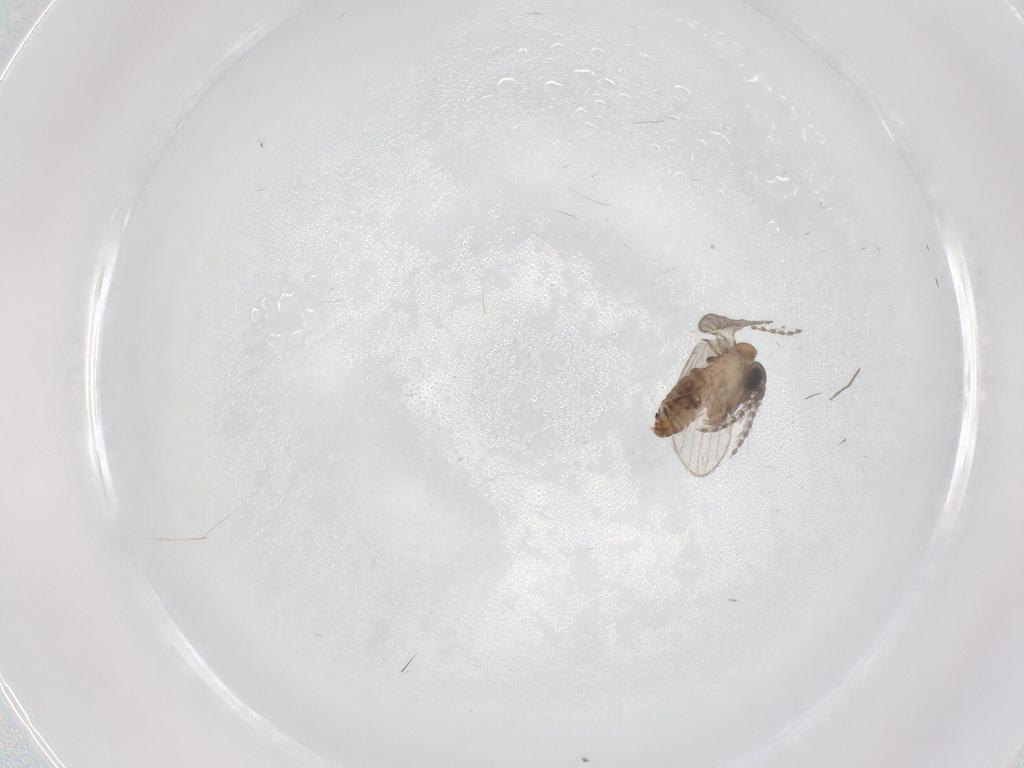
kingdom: Animalia
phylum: Arthropoda
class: Insecta
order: Diptera
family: Chironomidae
